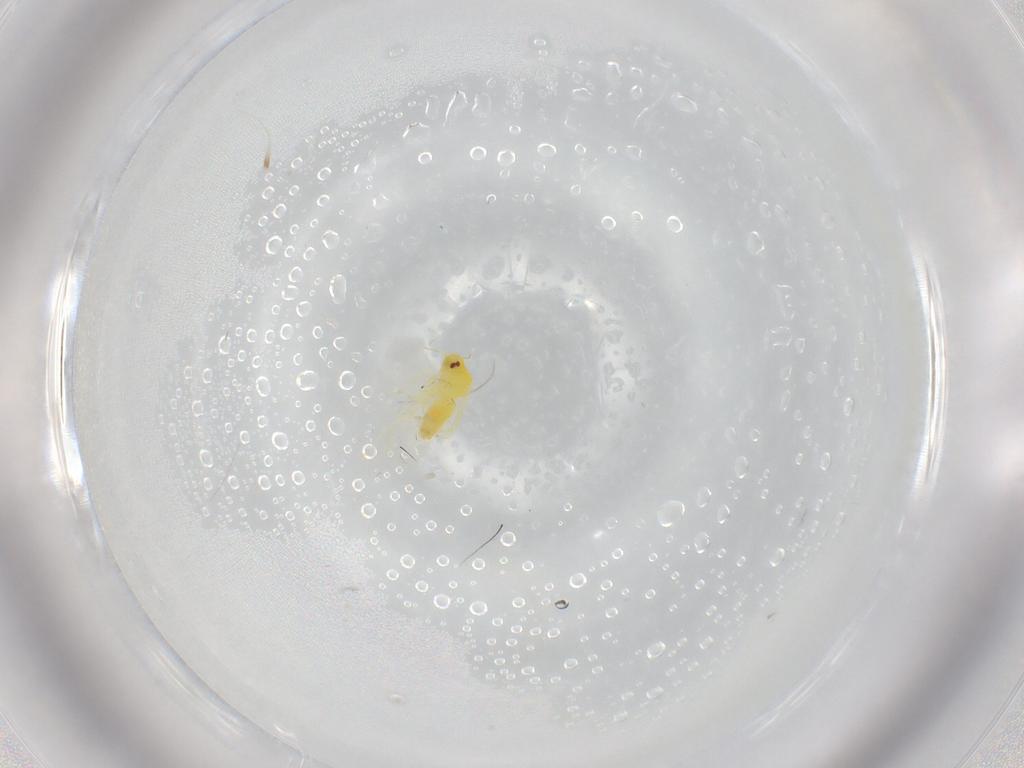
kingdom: Animalia
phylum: Arthropoda
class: Insecta
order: Hemiptera
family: Aleyrodidae
